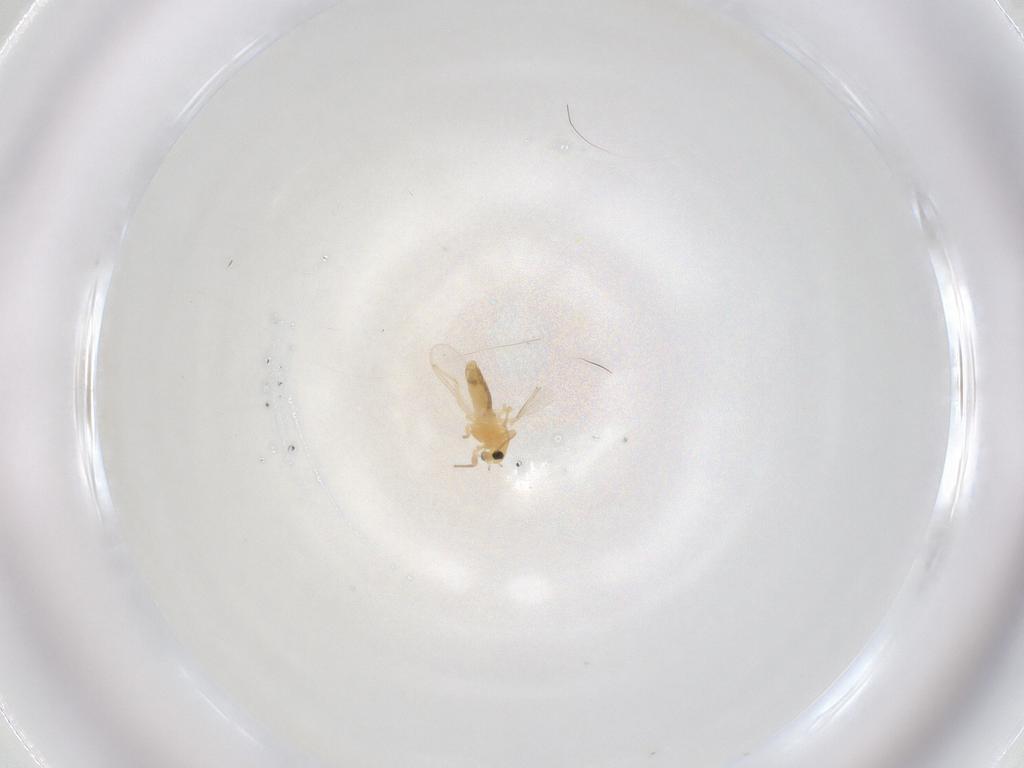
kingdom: Animalia
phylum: Arthropoda
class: Insecta
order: Diptera
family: Chironomidae
